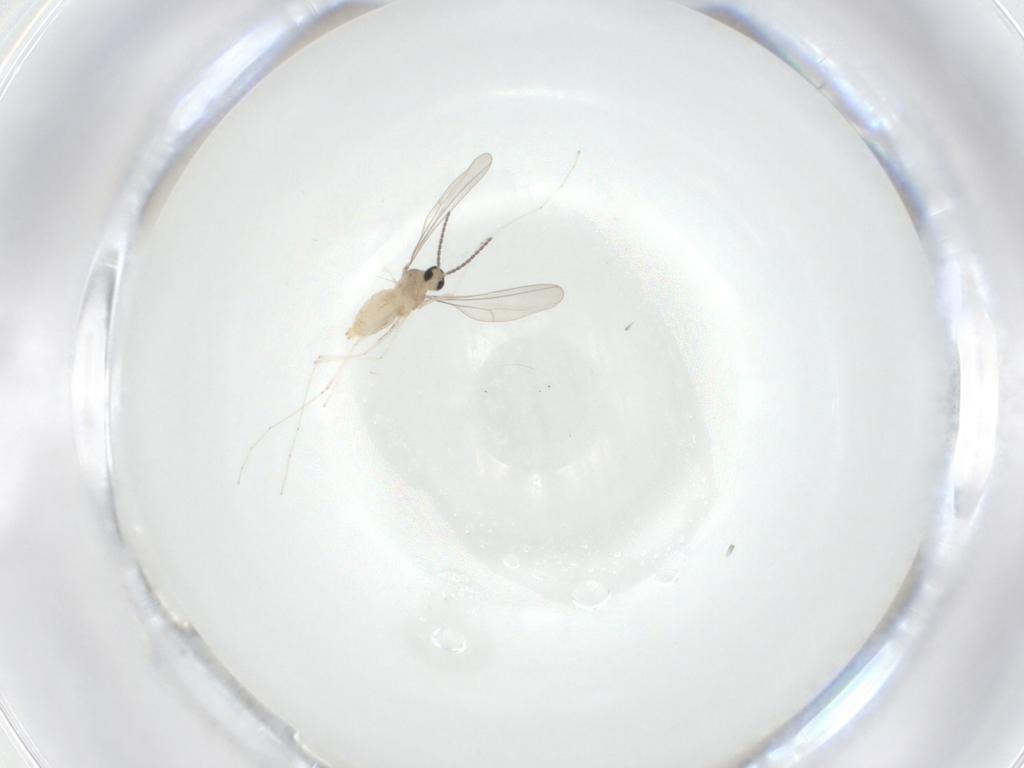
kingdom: Animalia
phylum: Arthropoda
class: Insecta
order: Diptera
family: Cecidomyiidae
